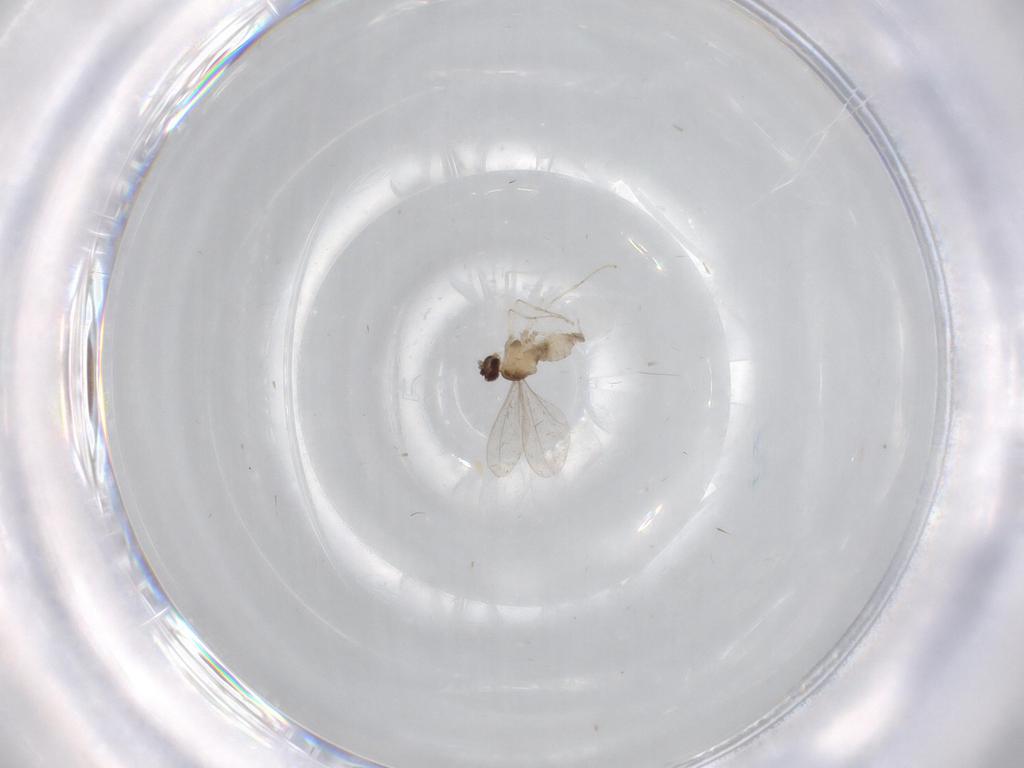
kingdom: Animalia
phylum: Arthropoda
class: Insecta
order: Diptera
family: Cecidomyiidae
